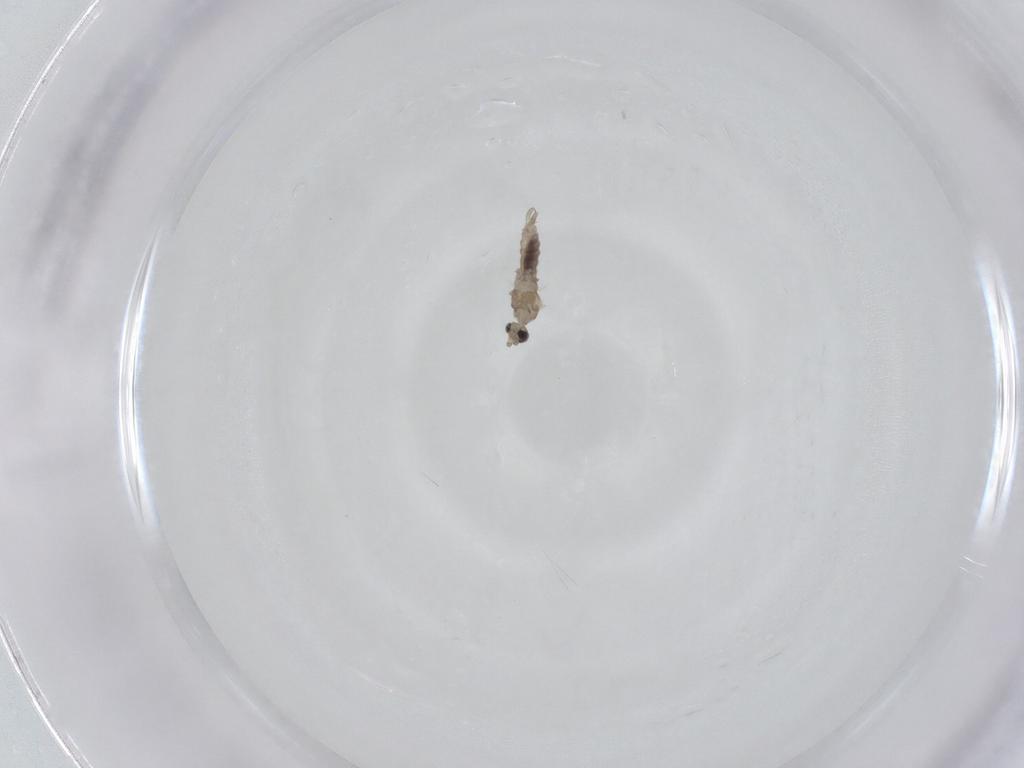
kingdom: Animalia
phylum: Arthropoda
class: Insecta
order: Diptera
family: Cecidomyiidae
